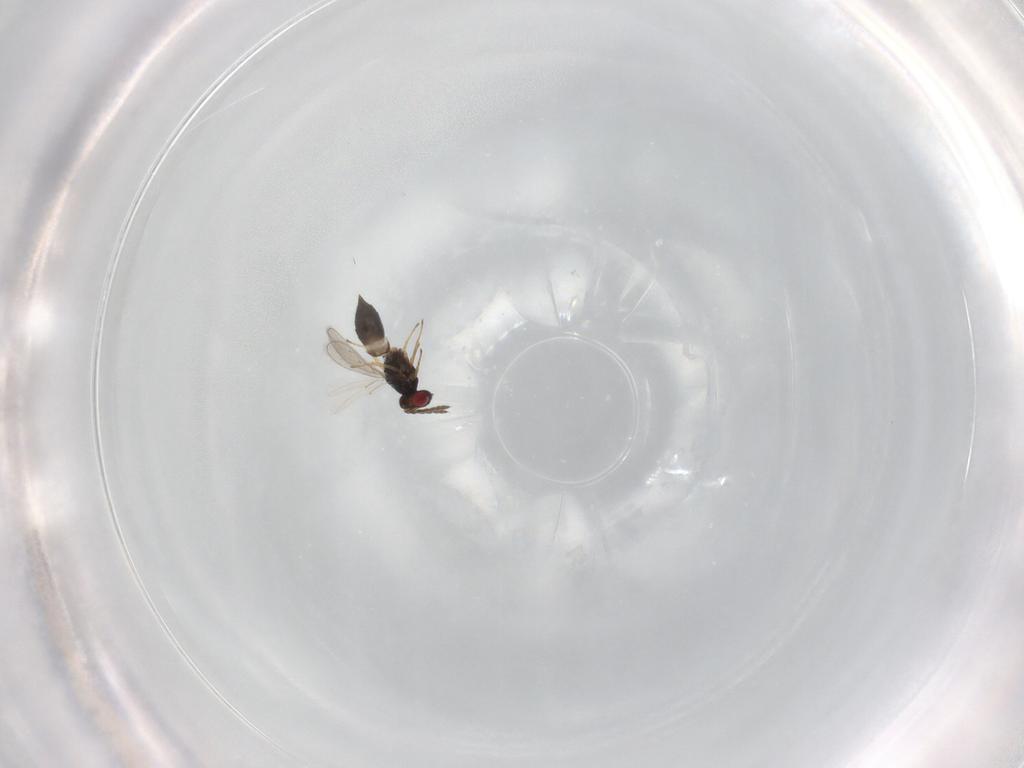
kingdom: Animalia
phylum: Arthropoda
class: Insecta
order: Hymenoptera
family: Eulophidae
